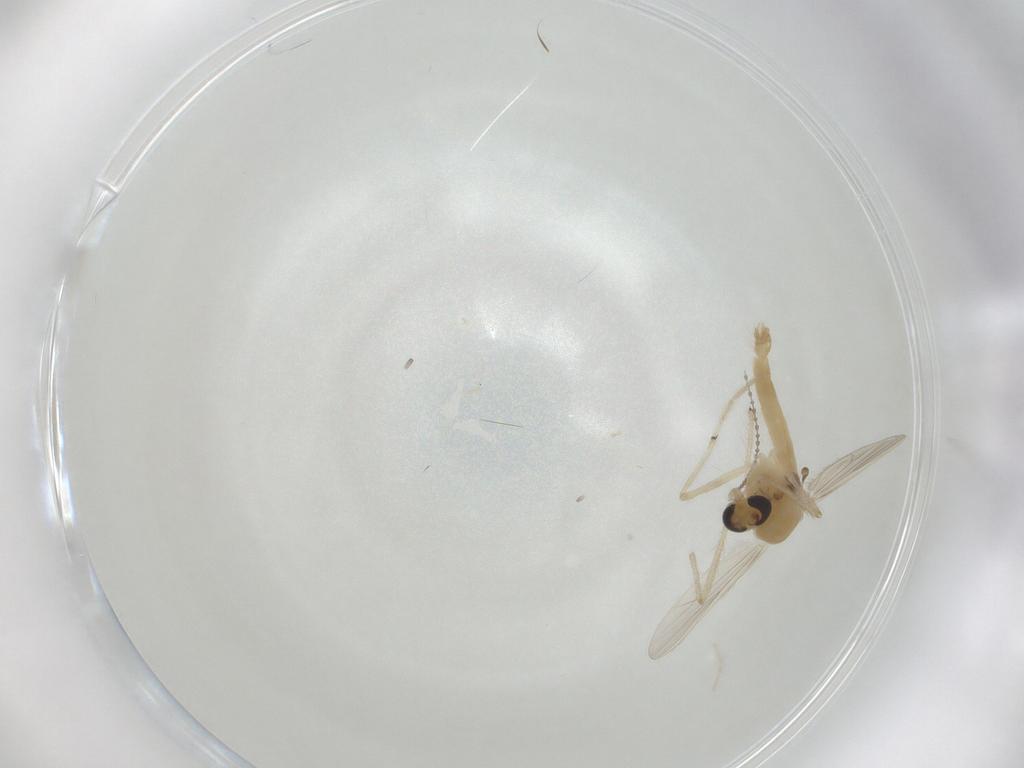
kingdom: Animalia
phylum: Arthropoda
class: Insecta
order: Diptera
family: Chironomidae
